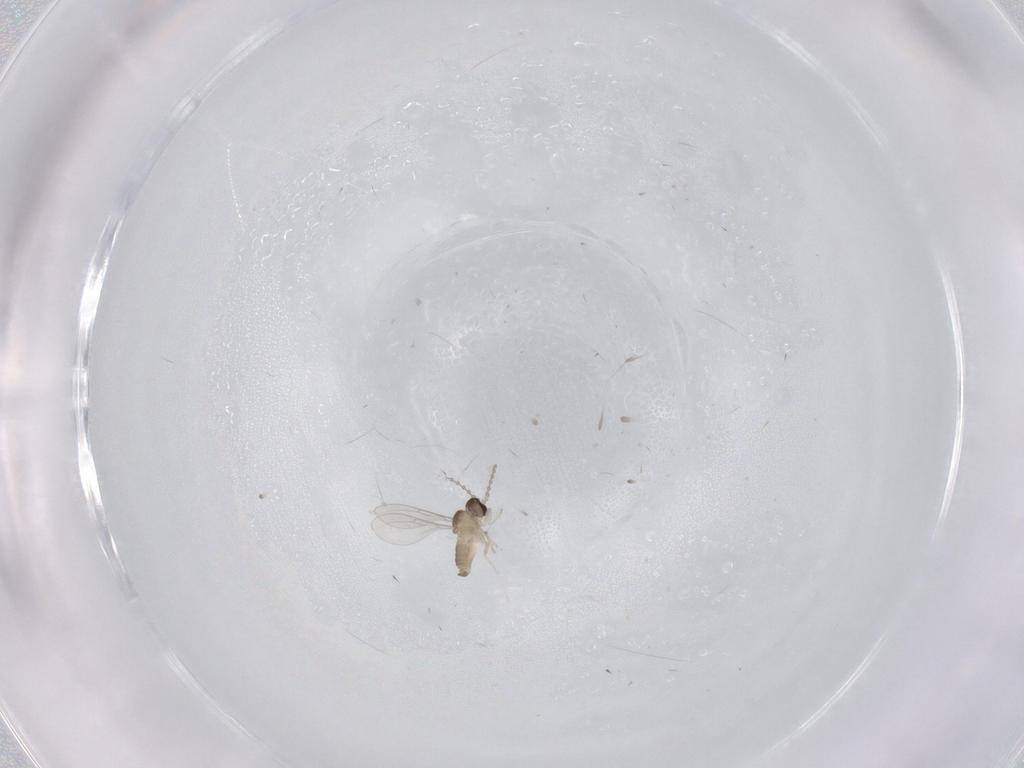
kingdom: Animalia
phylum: Arthropoda
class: Insecta
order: Diptera
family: Cecidomyiidae
